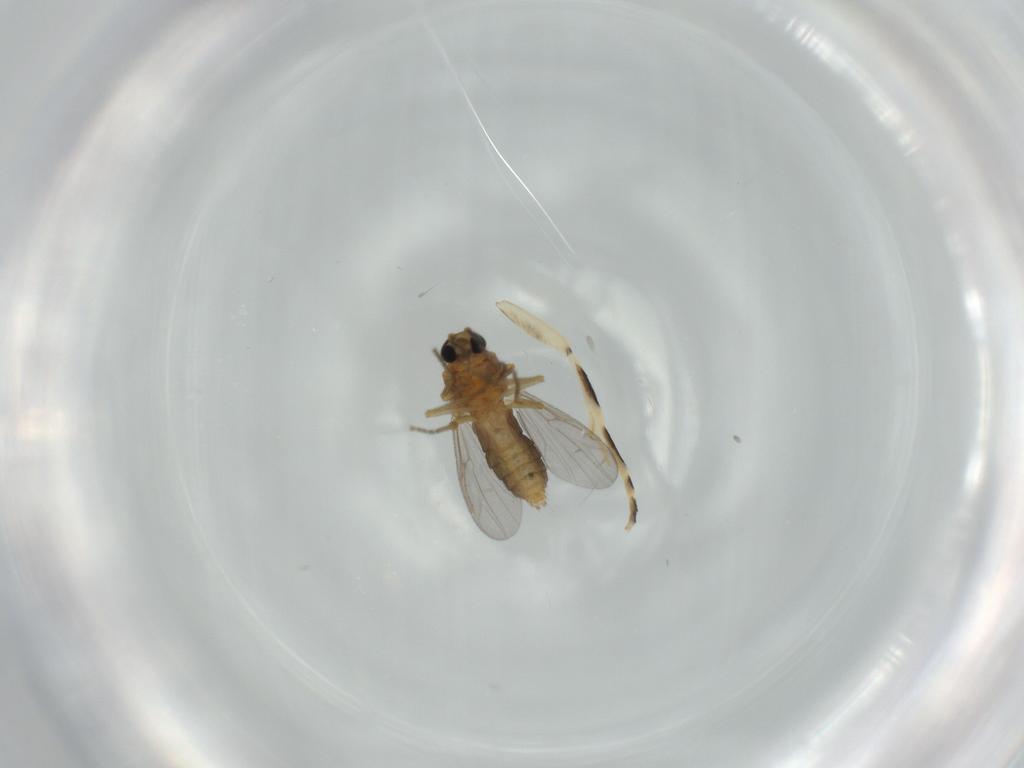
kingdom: Animalia
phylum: Arthropoda
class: Insecta
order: Diptera
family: Ceratopogonidae
